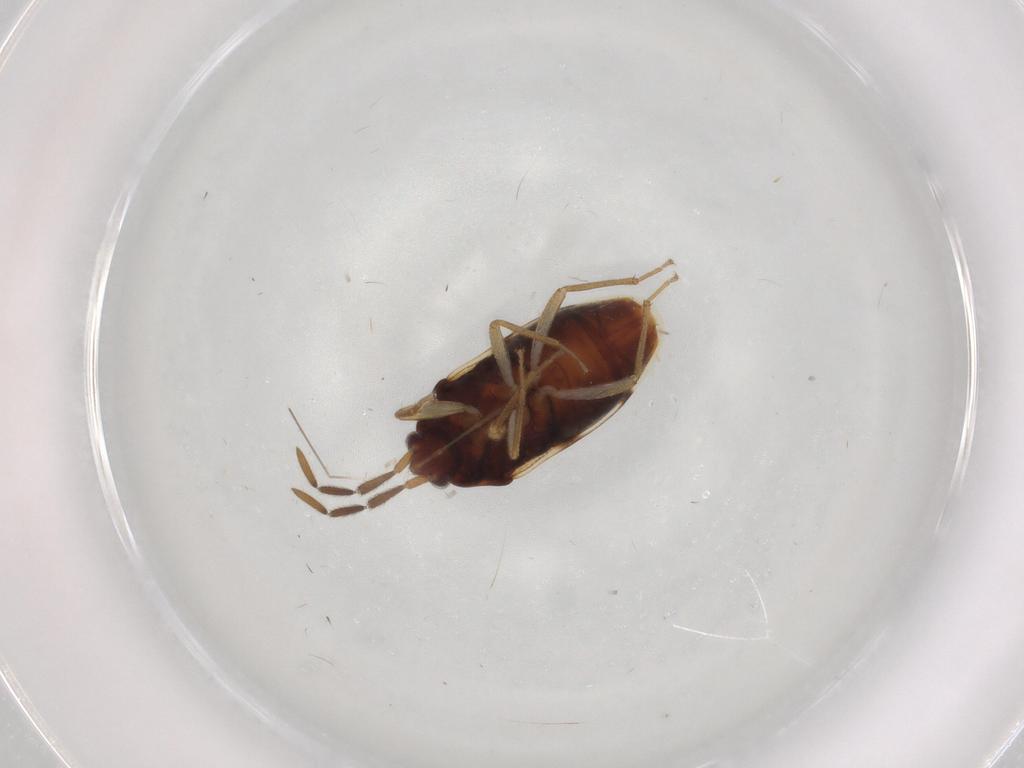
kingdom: Animalia
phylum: Arthropoda
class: Insecta
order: Hemiptera
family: Rhyparochromidae
